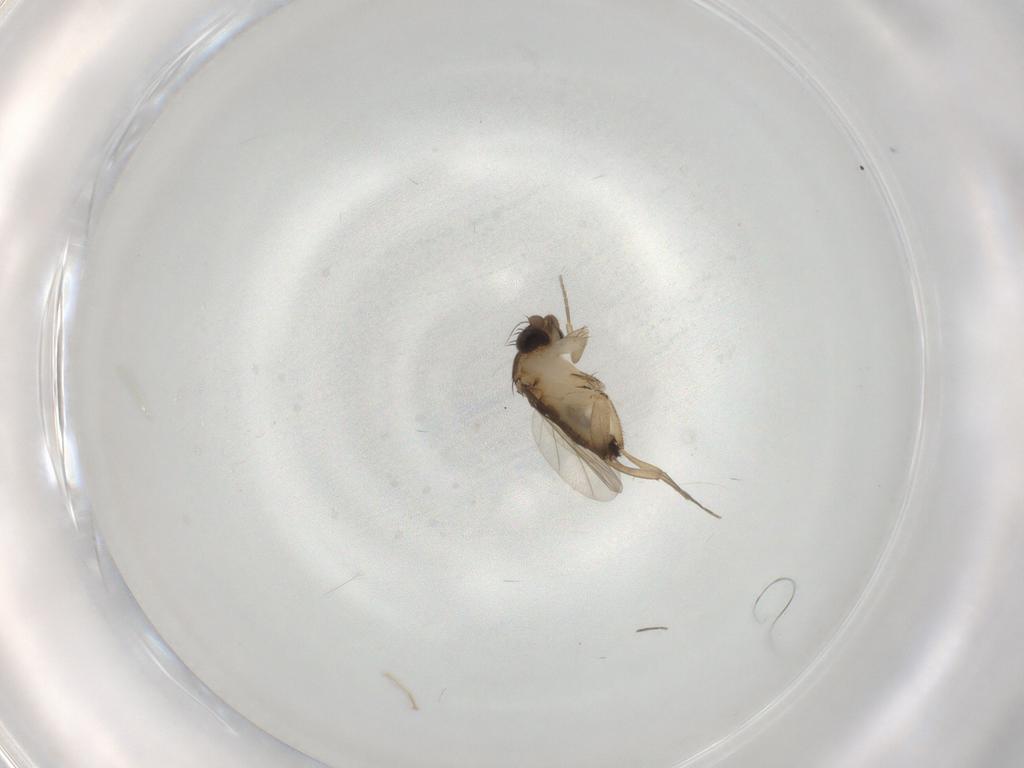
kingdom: Animalia
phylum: Arthropoda
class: Insecta
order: Diptera
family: Phoridae
